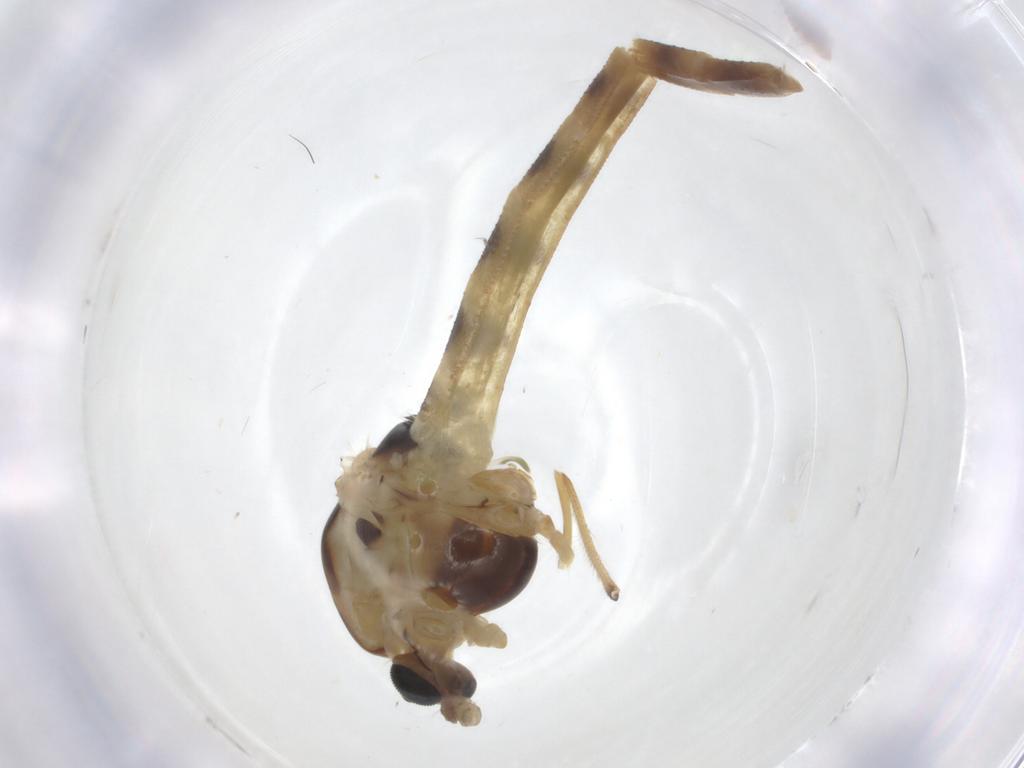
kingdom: Animalia
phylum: Arthropoda
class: Insecta
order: Diptera
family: Chironomidae
